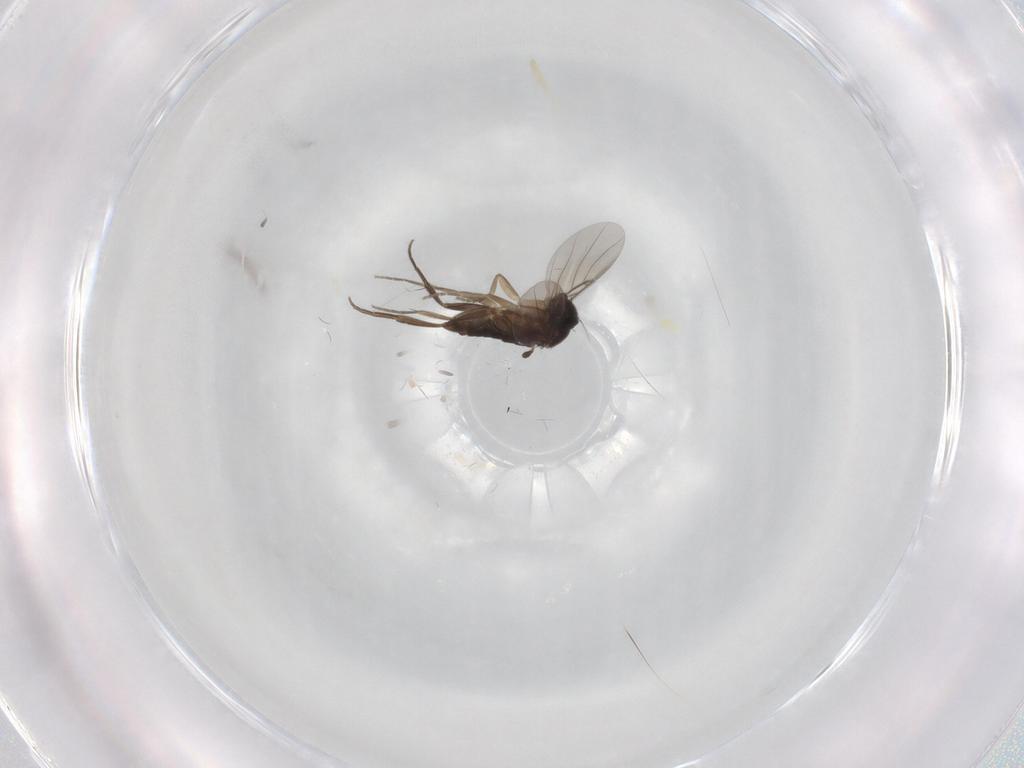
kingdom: Animalia
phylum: Arthropoda
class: Insecta
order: Diptera
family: Phoridae
